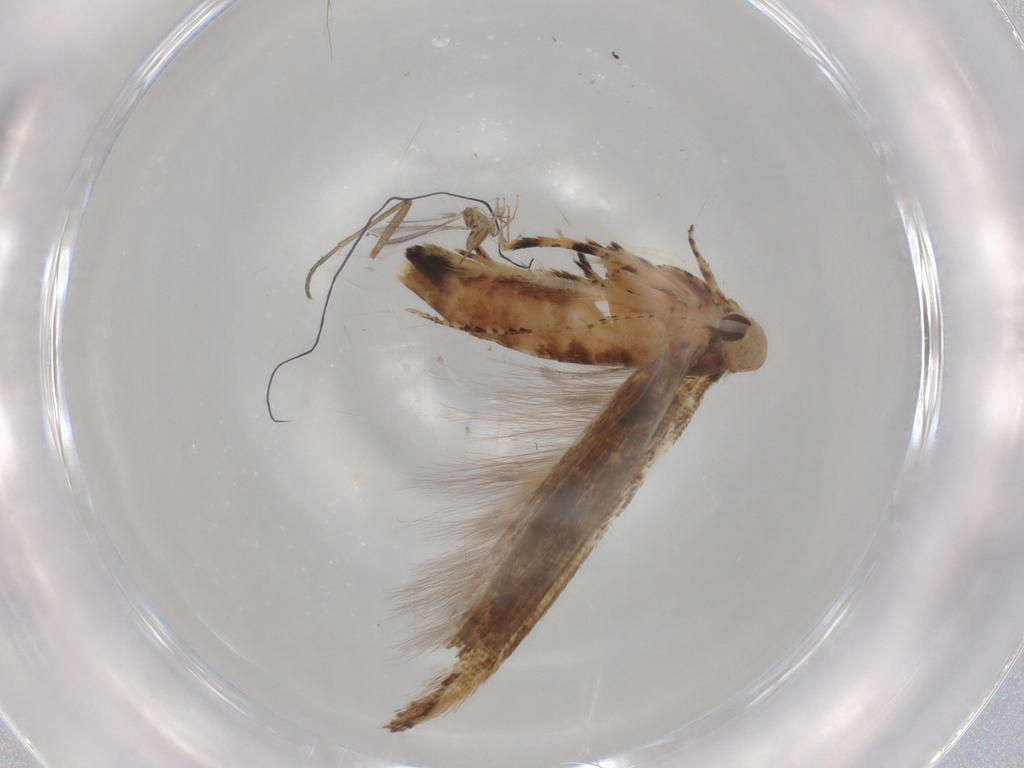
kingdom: Animalia
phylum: Arthropoda
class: Insecta
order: Lepidoptera
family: Cosmopterigidae
